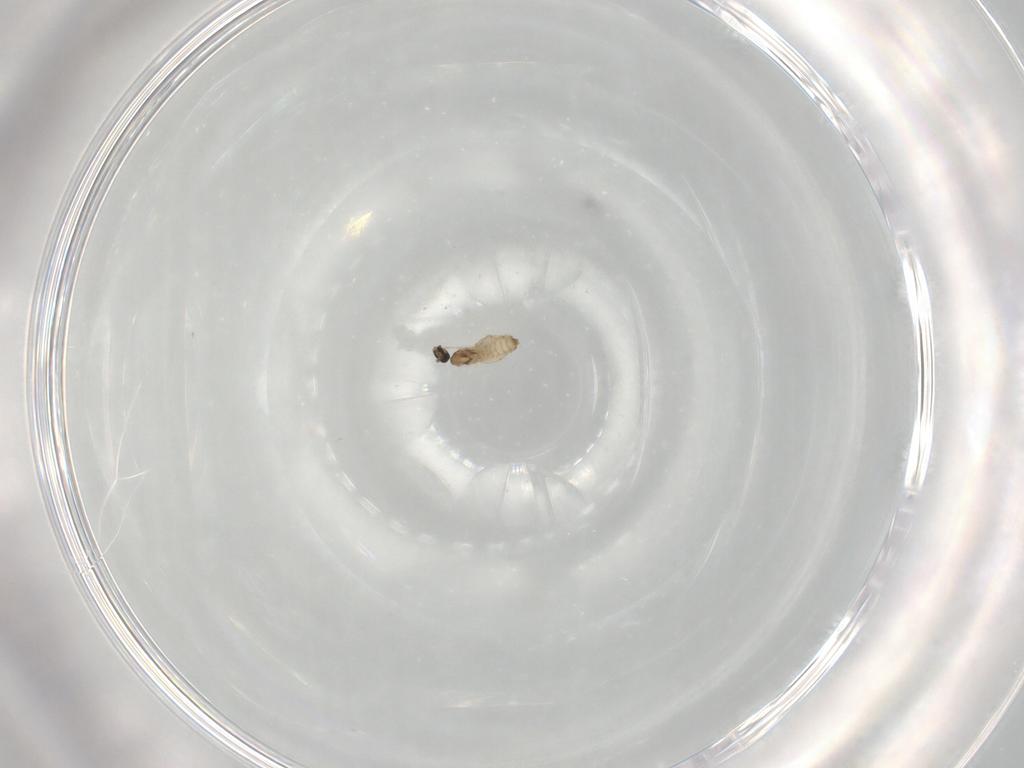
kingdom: Animalia
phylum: Arthropoda
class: Insecta
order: Diptera
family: Cecidomyiidae
